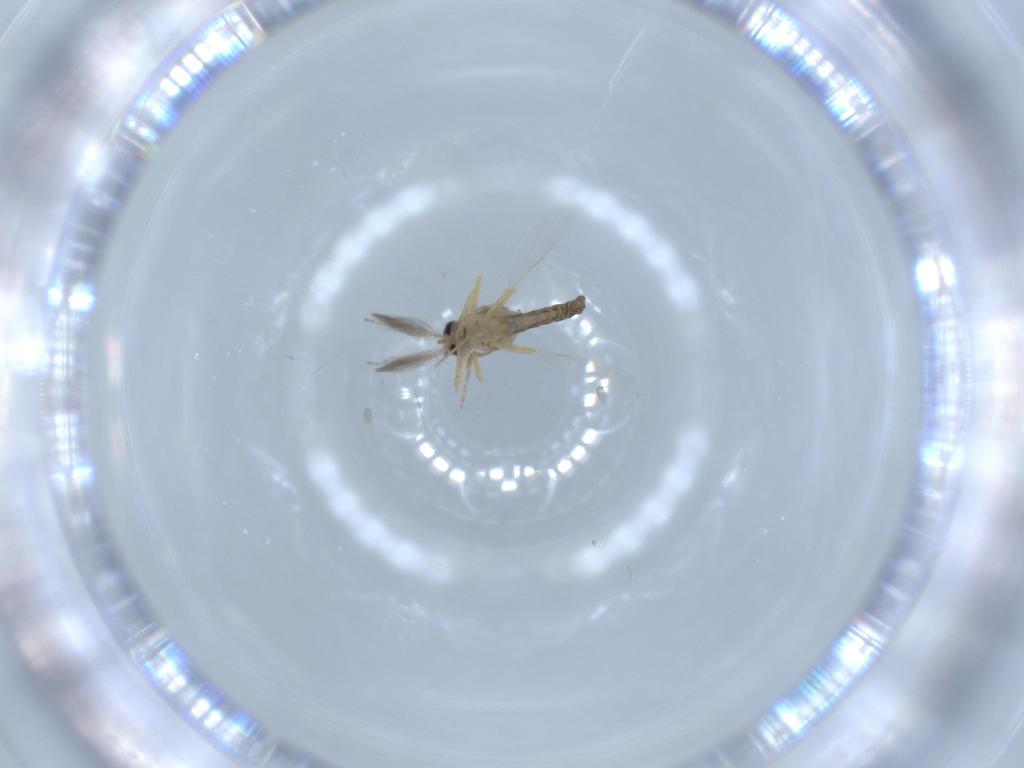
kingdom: Animalia
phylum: Arthropoda
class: Insecta
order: Diptera
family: Ceratopogonidae
